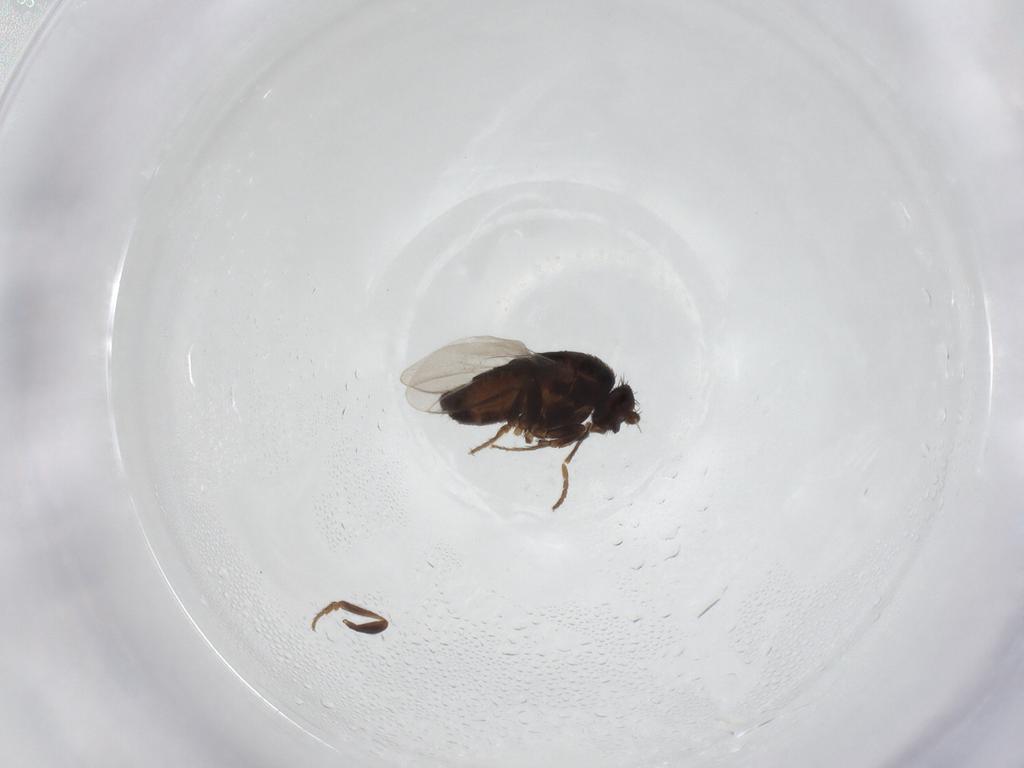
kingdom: Animalia
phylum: Arthropoda
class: Insecta
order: Diptera
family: Sphaeroceridae
